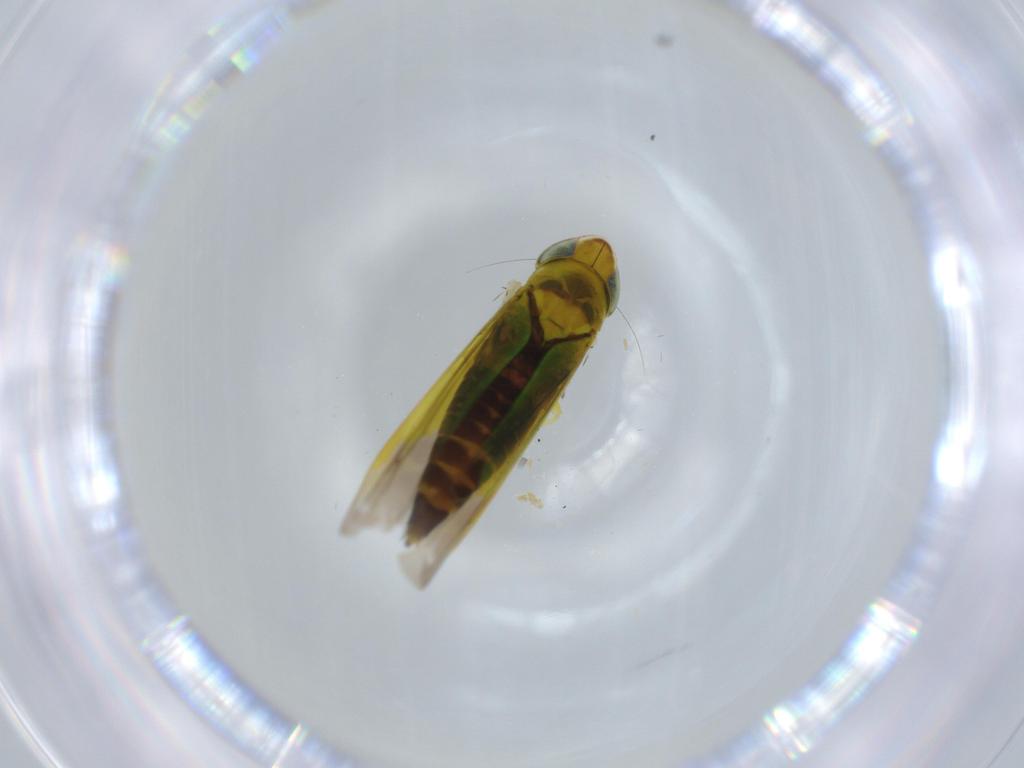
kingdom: Animalia
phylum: Arthropoda
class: Insecta
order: Hemiptera
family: Cicadellidae
